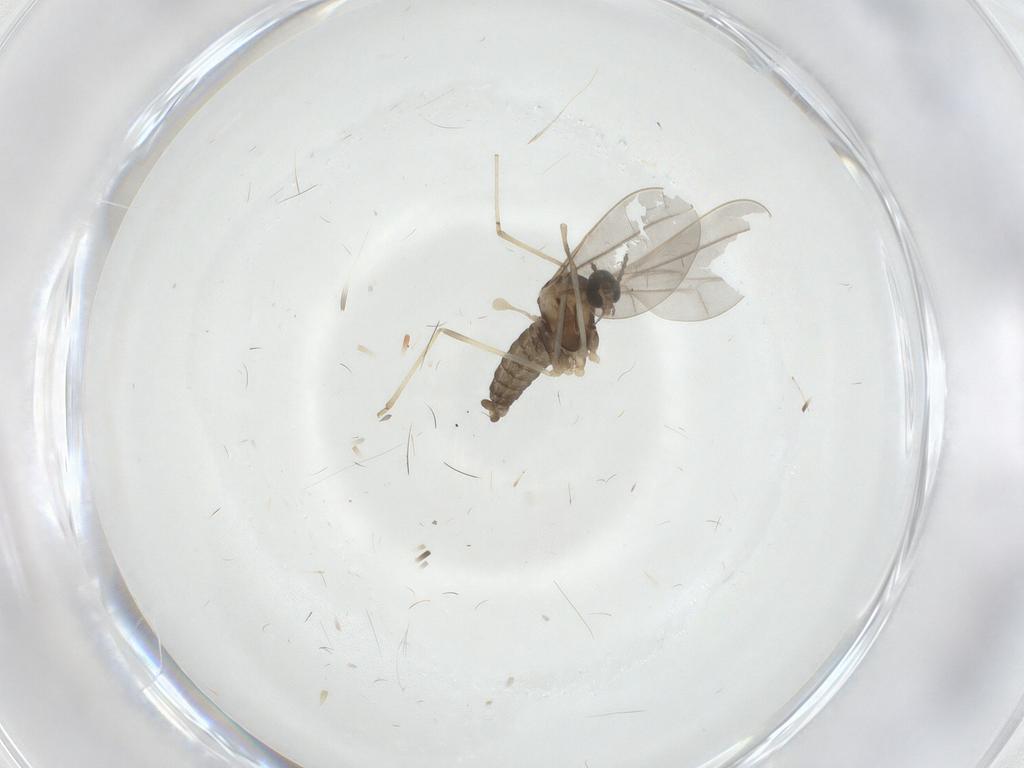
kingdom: Animalia
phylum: Arthropoda
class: Insecta
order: Diptera
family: Cecidomyiidae
